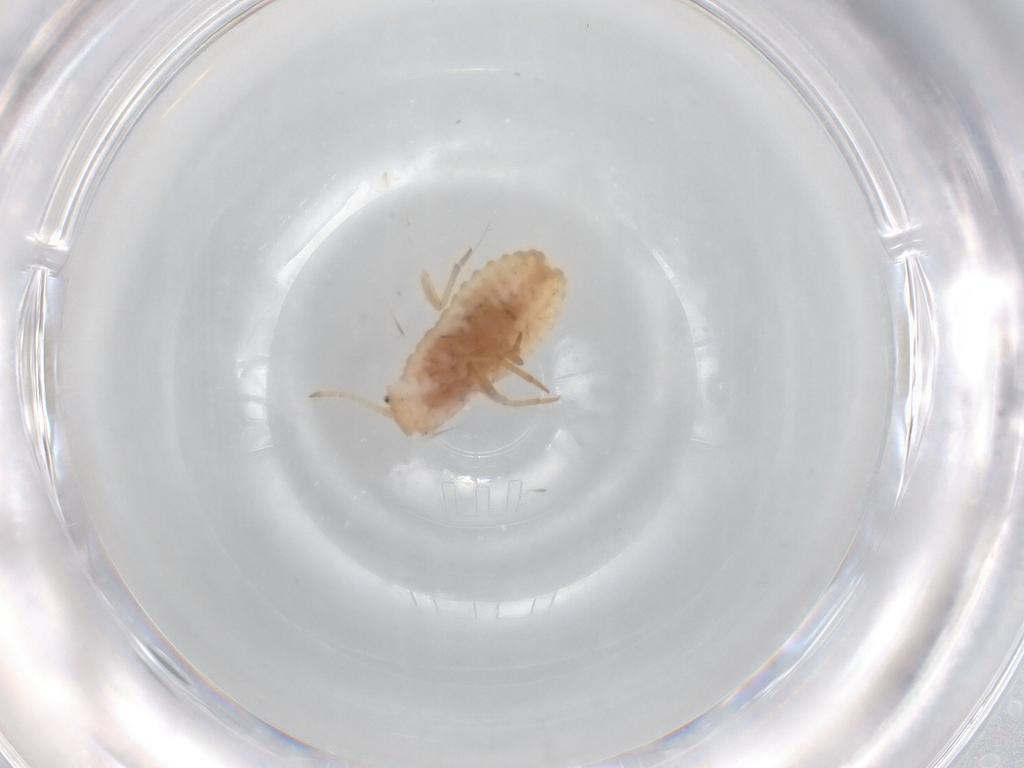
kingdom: Animalia
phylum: Arthropoda
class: Insecta
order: Hemiptera
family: Coccoidea_incertae_sedis
